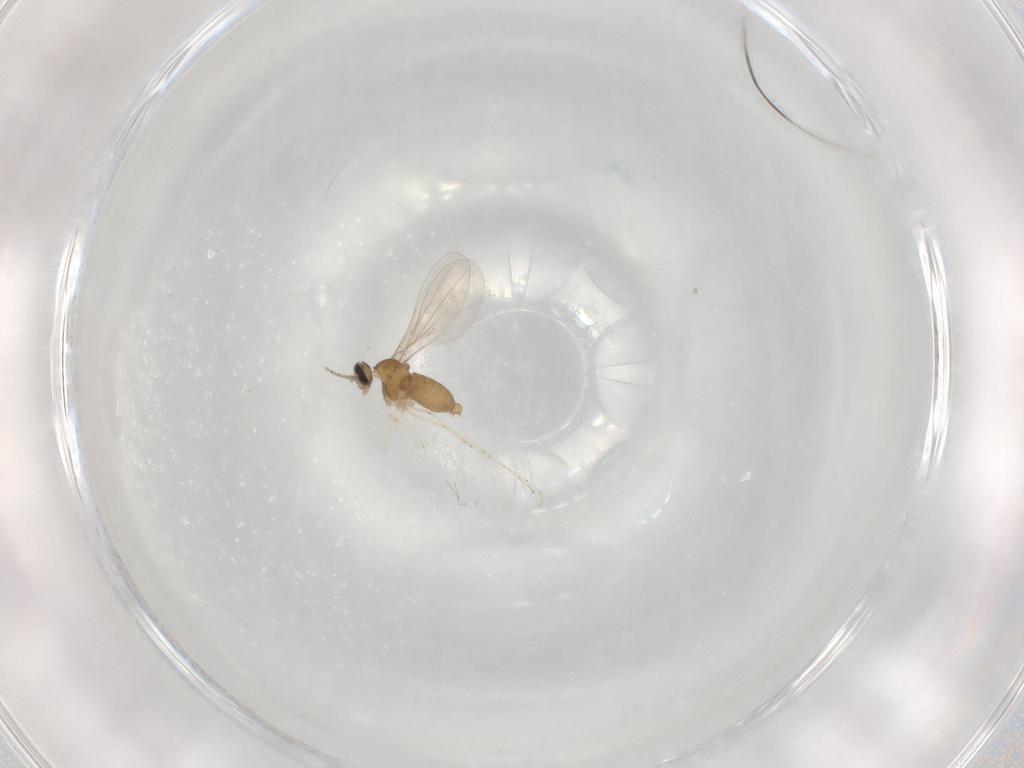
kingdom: Animalia
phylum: Arthropoda
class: Insecta
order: Diptera
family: Cecidomyiidae
